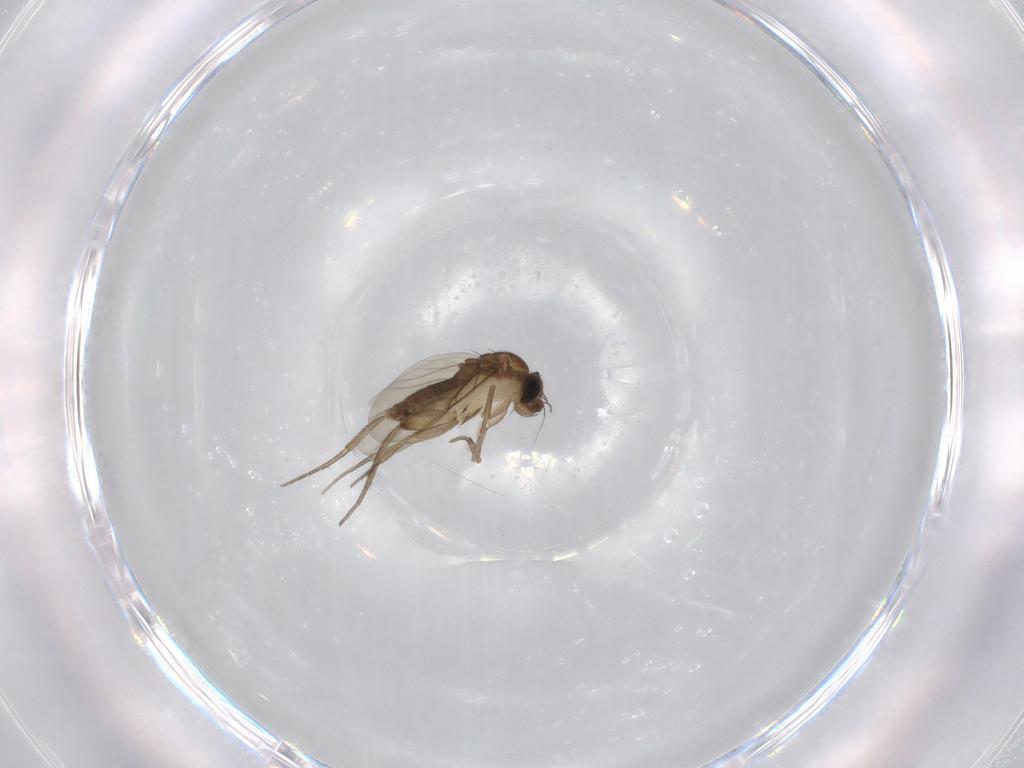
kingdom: Animalia
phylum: Arthropoda
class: Insecta
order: Diptera
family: Phoridae
